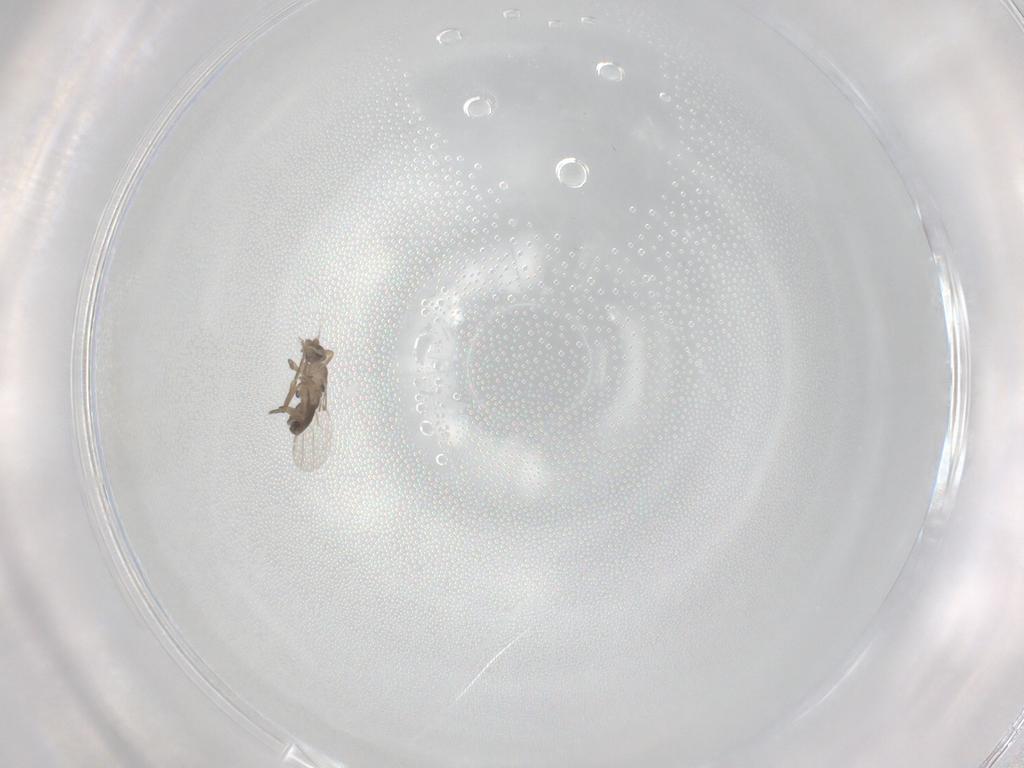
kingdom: Animalia
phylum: Arthropoda
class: Insecta
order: Diptera
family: Phoridae
